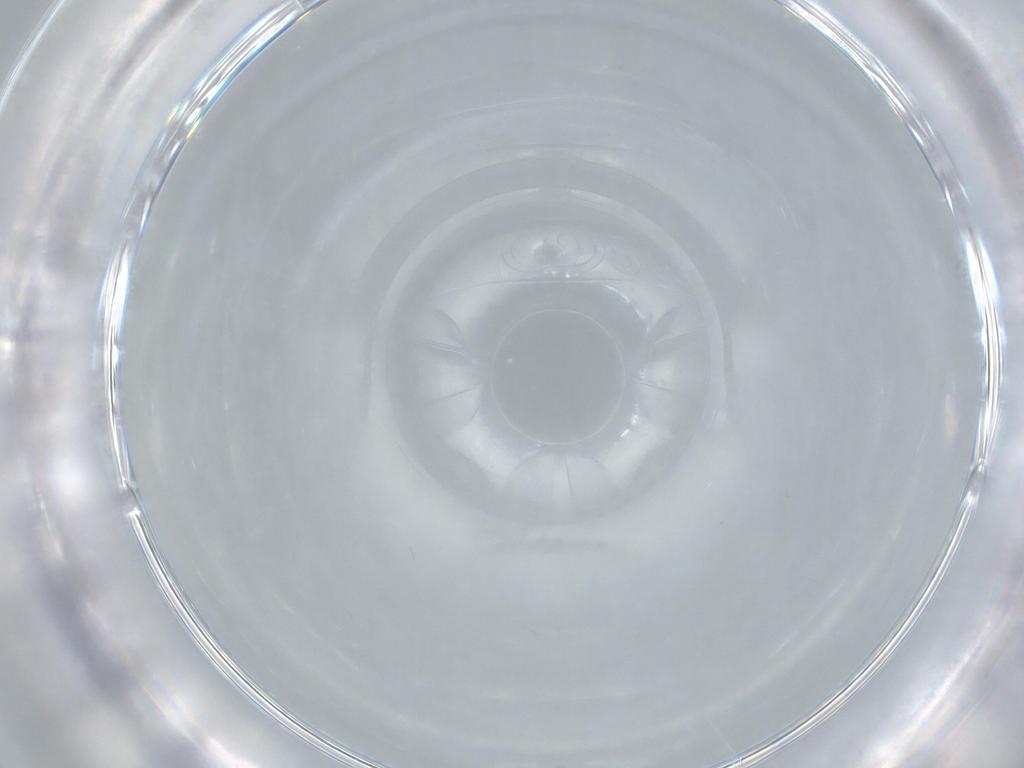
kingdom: Animalia
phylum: Arthropoda
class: Insecta
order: Diptera
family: Cecidomyiidae
